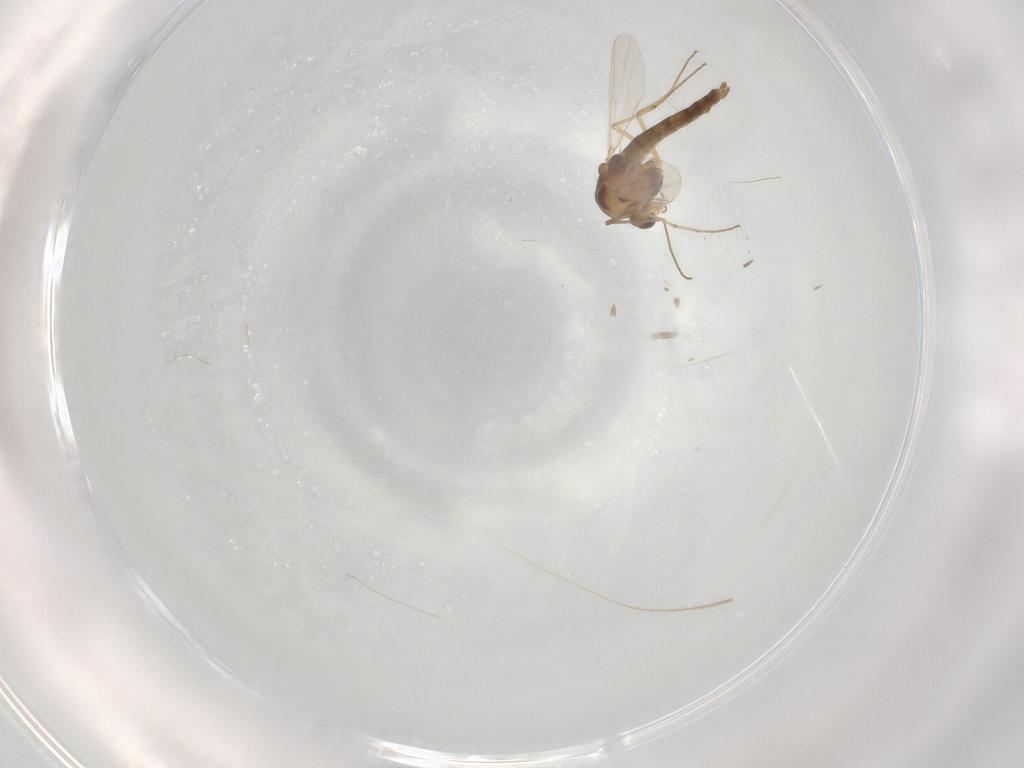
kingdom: Animalia
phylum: Arthropoda
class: Insecta
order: Diptera
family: Chironomidae
